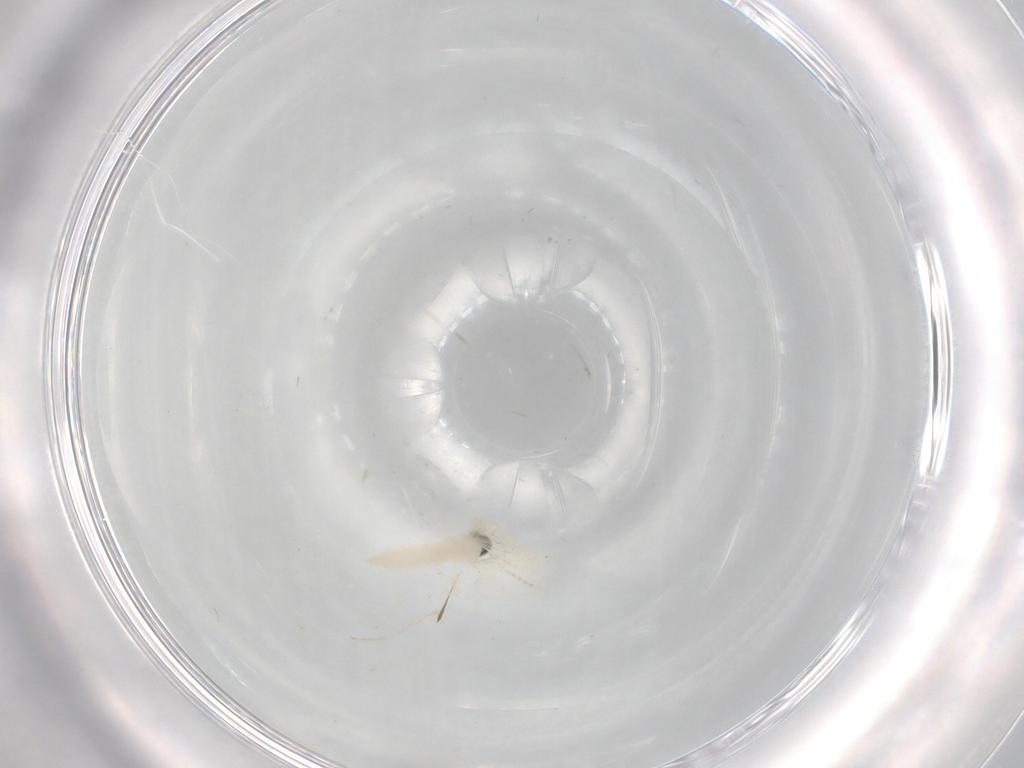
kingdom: Animalia
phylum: Arthropoda
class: Insecta
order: Diptera
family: Cecidomyiidae
